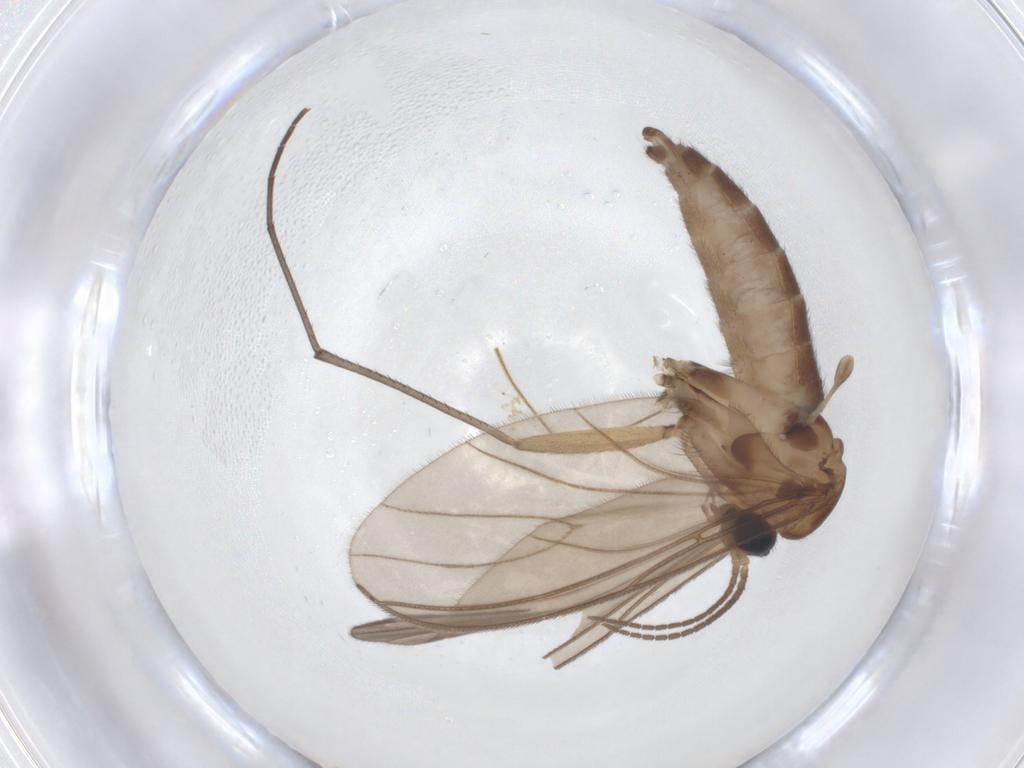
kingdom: Animalia
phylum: Arthropoda
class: Insecta
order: Diptera
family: Sciaridae
